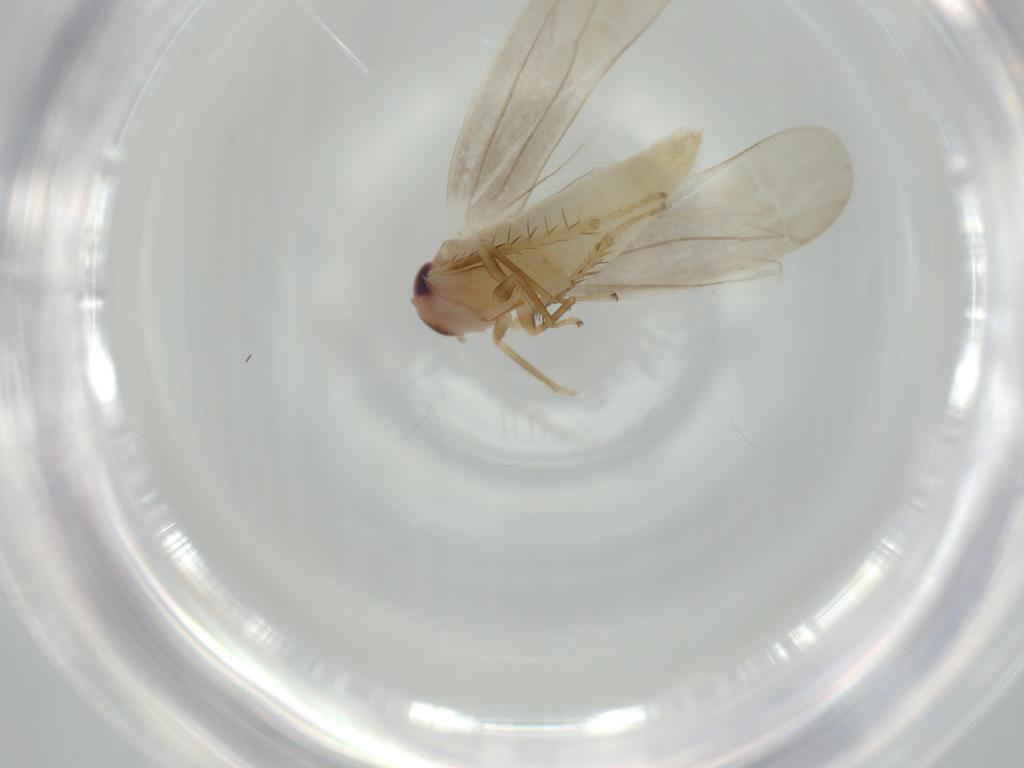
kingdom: Animalia
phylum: Arthropoda
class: Insecta
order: Hemiptera
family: Cicadellidae
